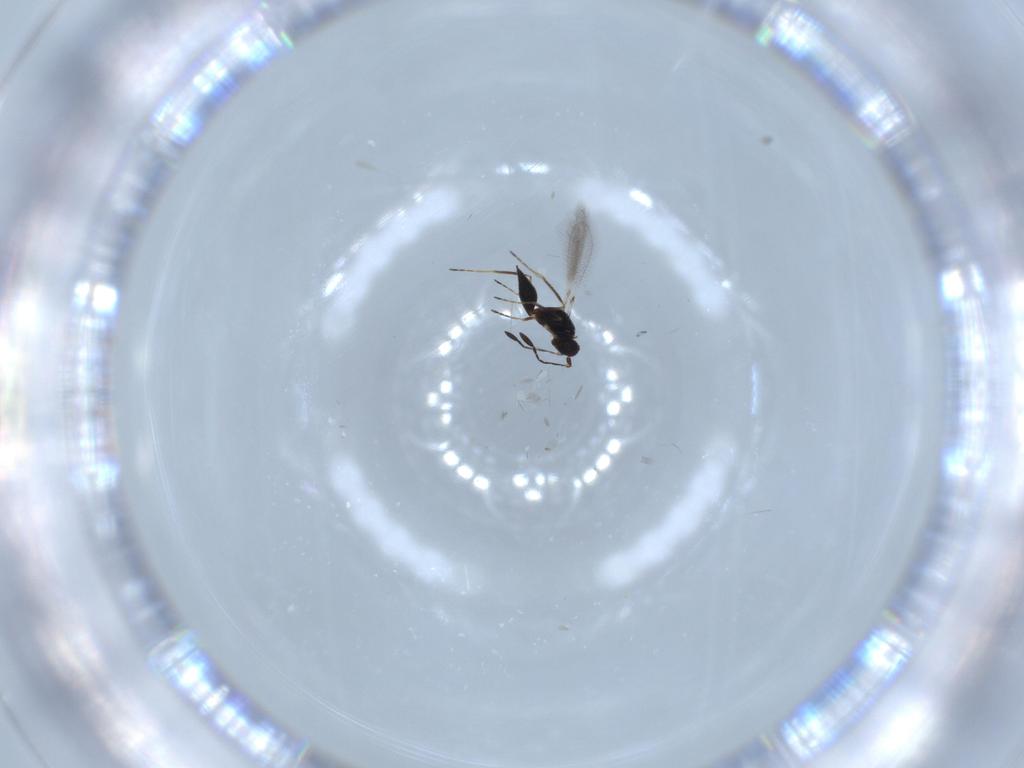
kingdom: Animalia
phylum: Arthropoda
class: Insecta
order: Hymenoptera
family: Mymaridae
